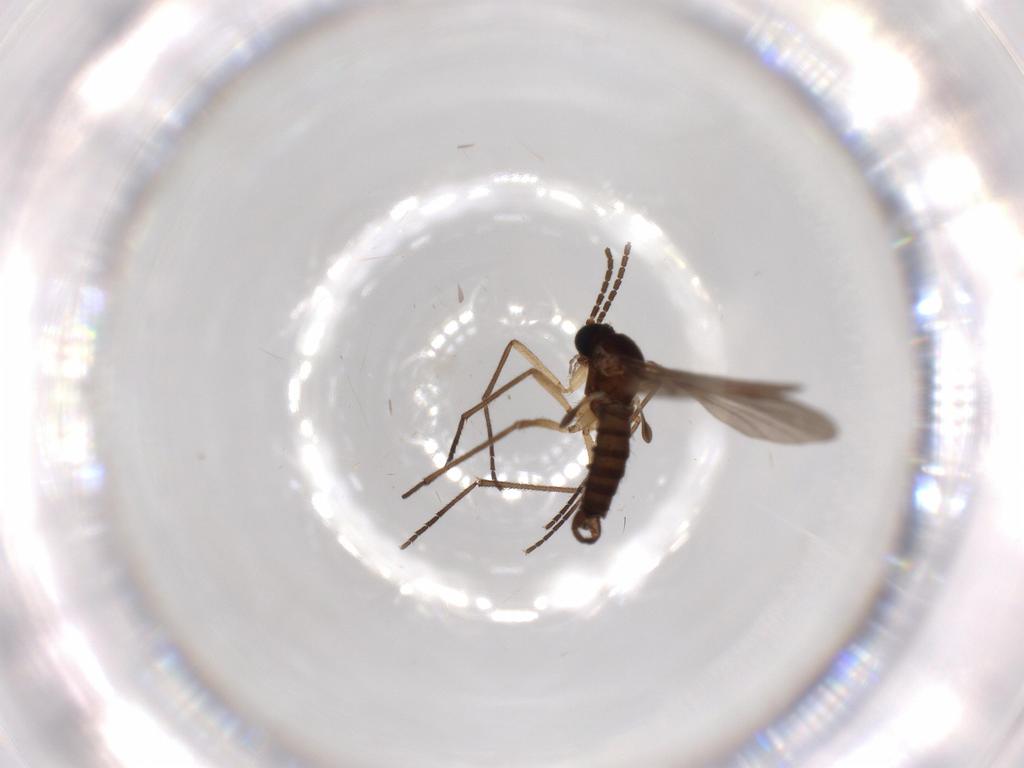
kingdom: Animalia
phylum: Arthropoda
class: Insecta
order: Diptera
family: Sciaridae
